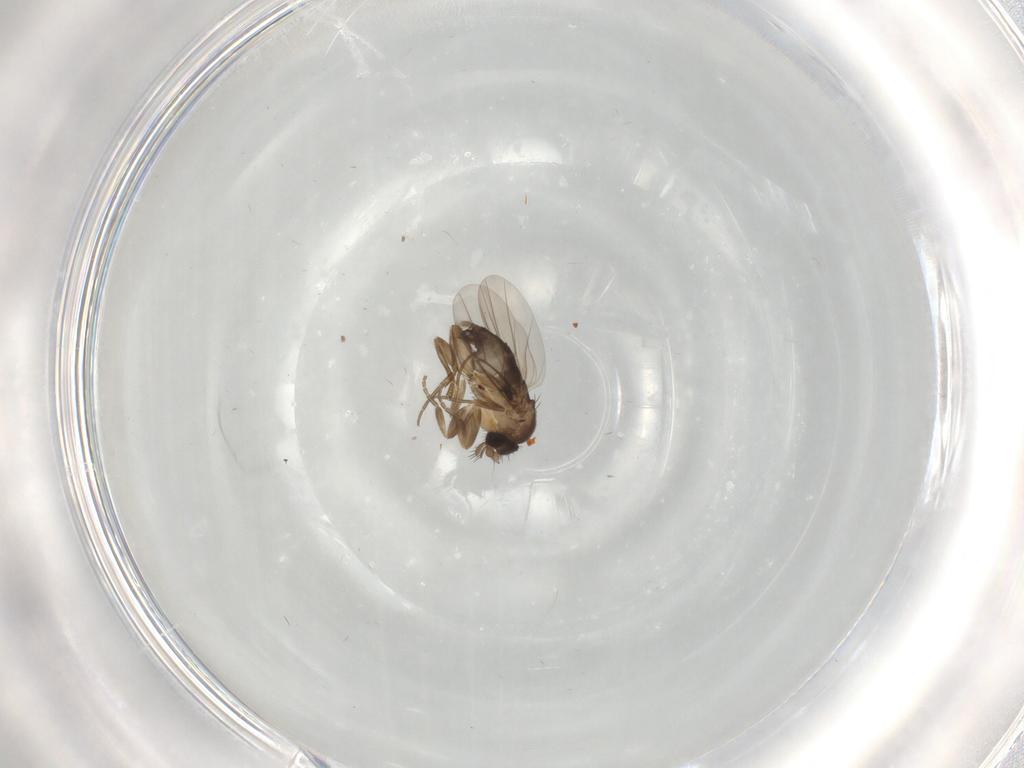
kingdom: Animalia
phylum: Arthropoda
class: Insecta
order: Diptera
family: Phoridae
